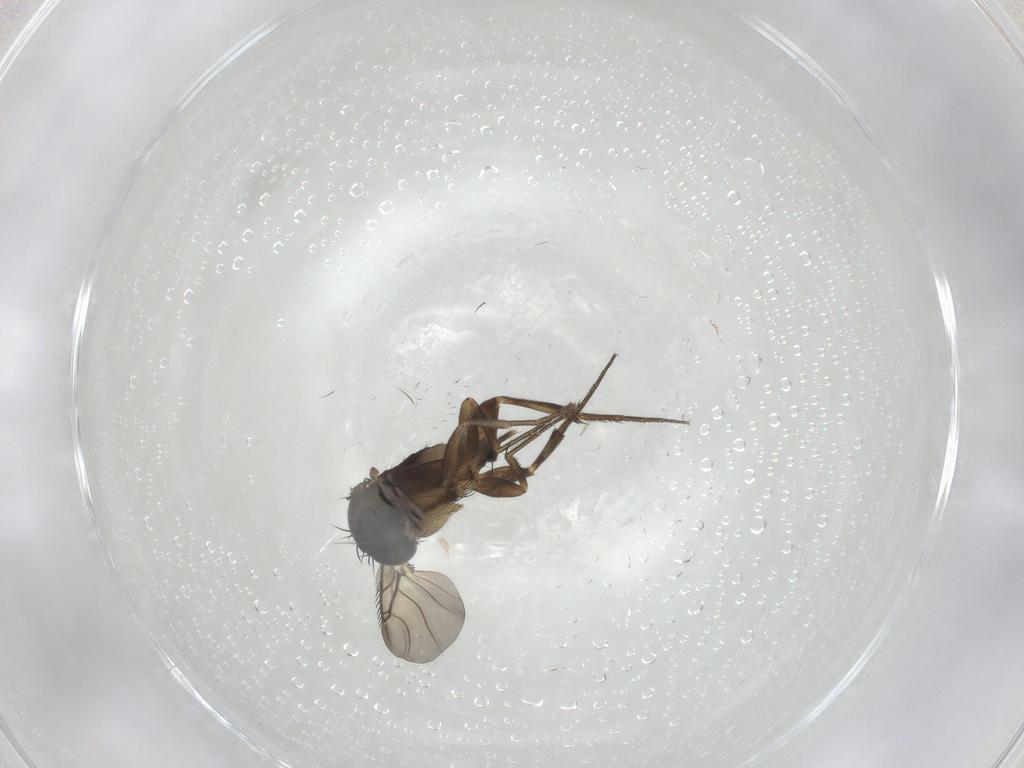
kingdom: Animalia
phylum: Arthropoda
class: Insecta
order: Diptera
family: Phoridae
